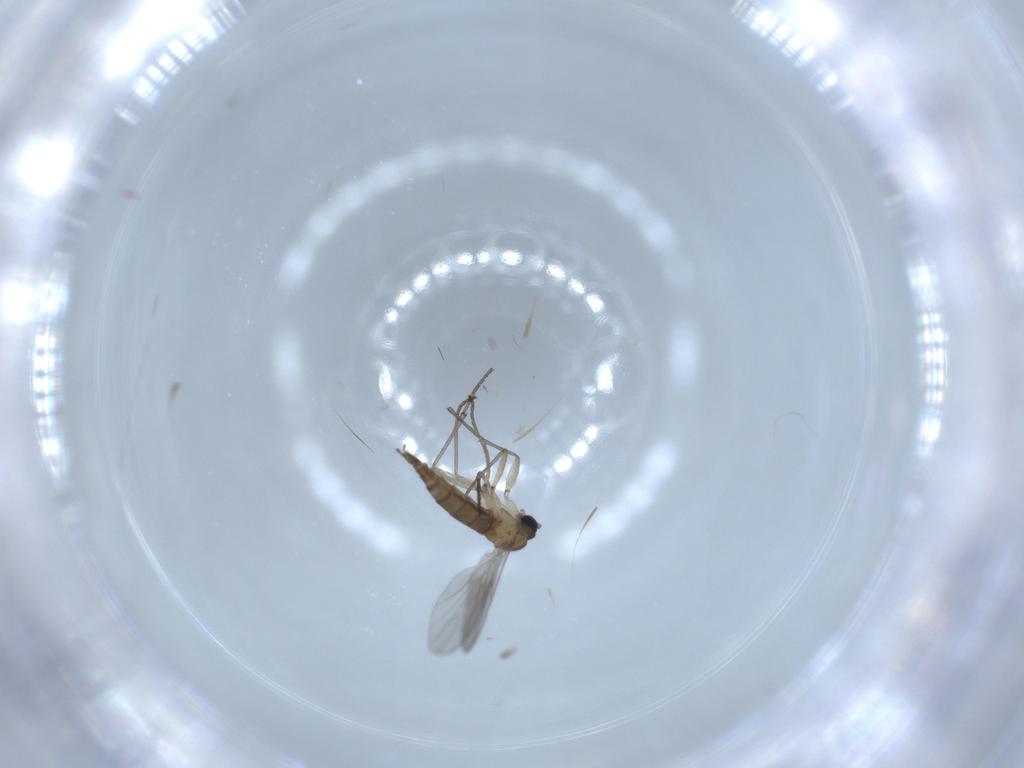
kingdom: Animalia
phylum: Arthropoda
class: Insecta
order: Diptera
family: Sciaridae
